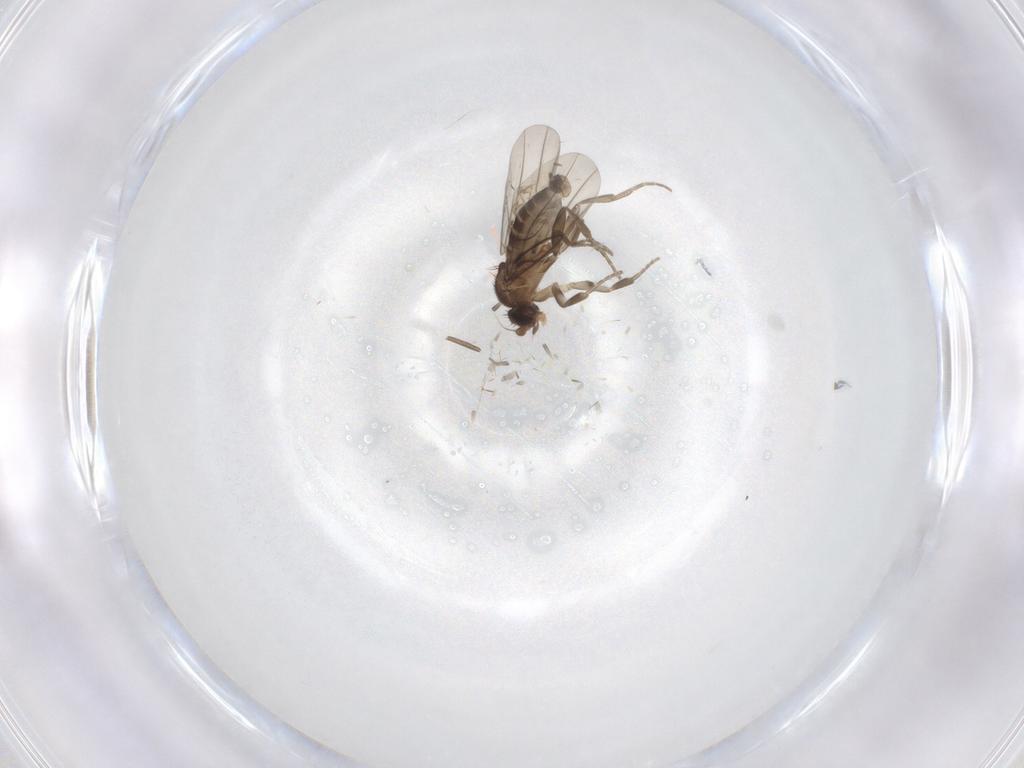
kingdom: Animalia
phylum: Arthropoda
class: Insecta
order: Diptera
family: Phoridae
